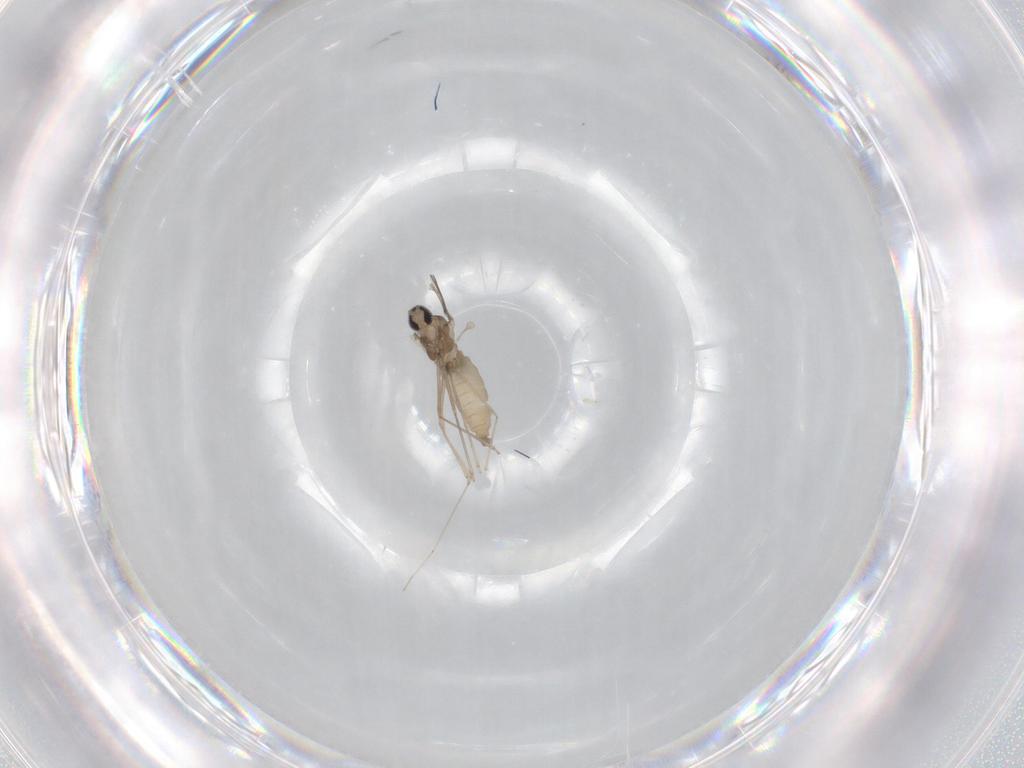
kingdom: Animalia
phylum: Arthropoda
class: Insecta
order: Diptera
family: Cecidomyiidae
